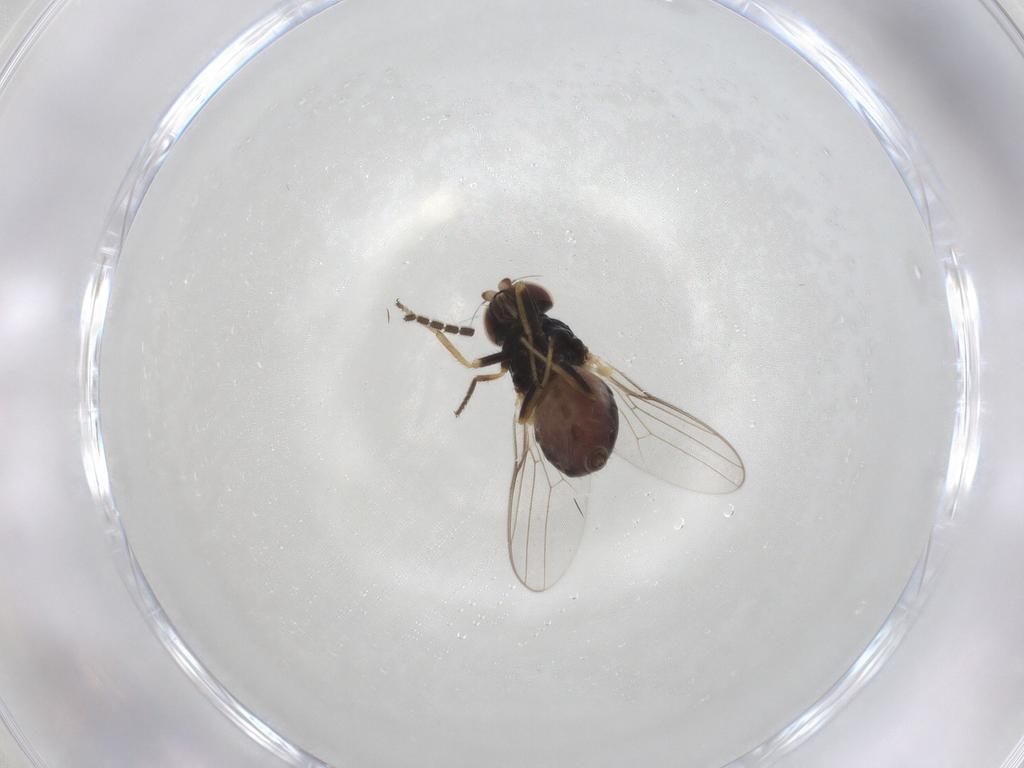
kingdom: Animalia
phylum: Arthropoda
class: Insecta
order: Diptera
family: Chloropidae
